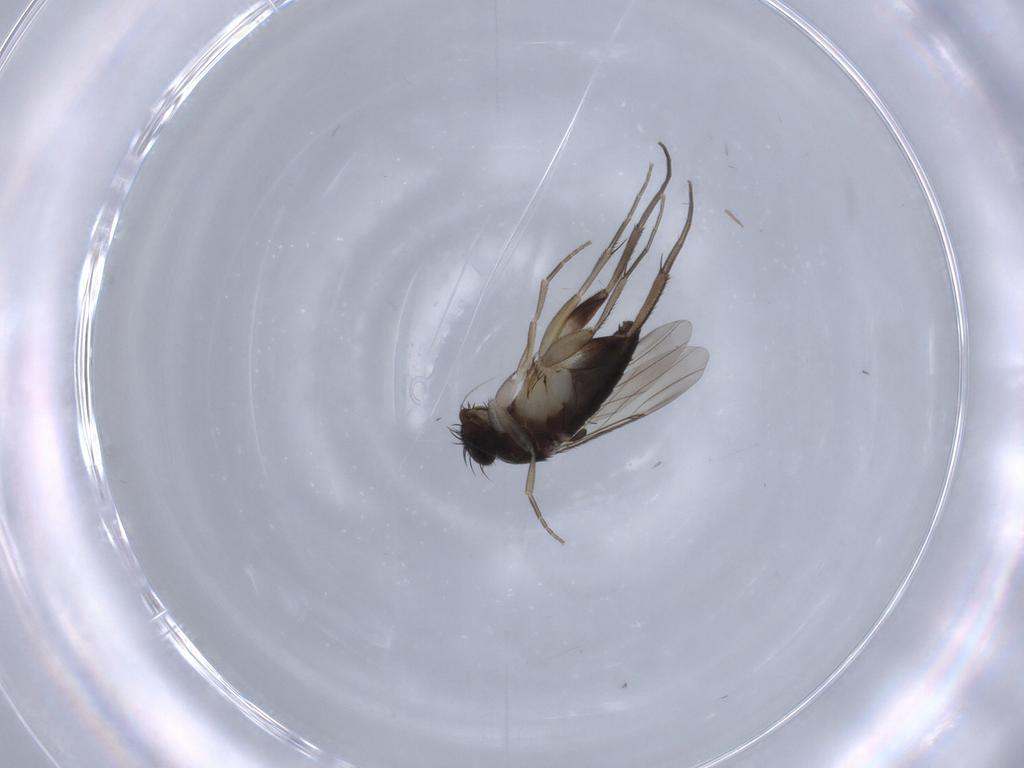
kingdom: Animalia
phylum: Arthropoda
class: Insecta
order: Diptera
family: Phoridae
